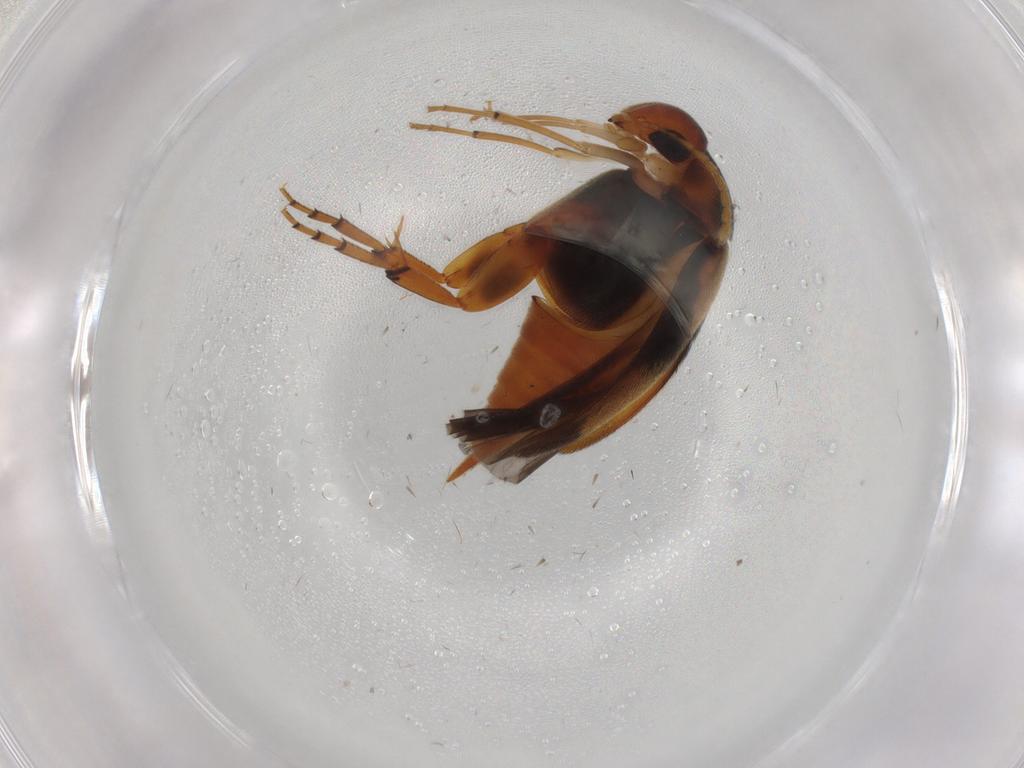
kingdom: Animalia
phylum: Arthropoda
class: Insecta
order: Coleoptera
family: Mordellidae
